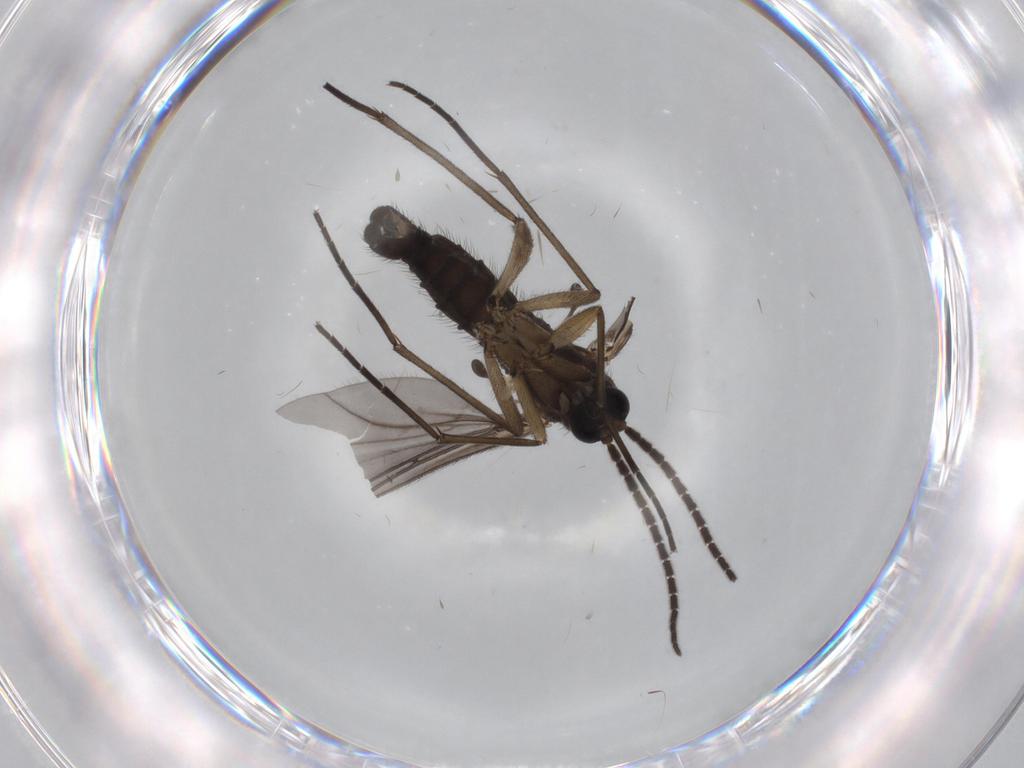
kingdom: Animalia
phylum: Arthropoda
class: Insecta
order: Diptera
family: Sciaridae
